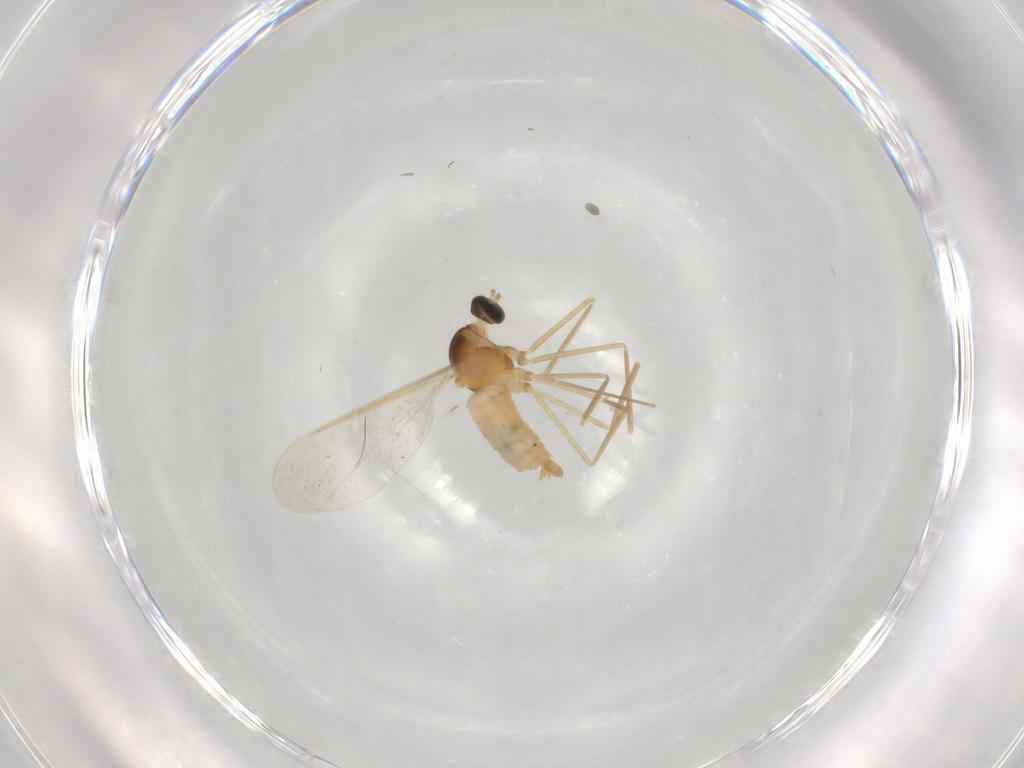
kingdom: Animalia
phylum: Arthropoda
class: Insecta
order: Diptera
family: Cecidomyiidae
